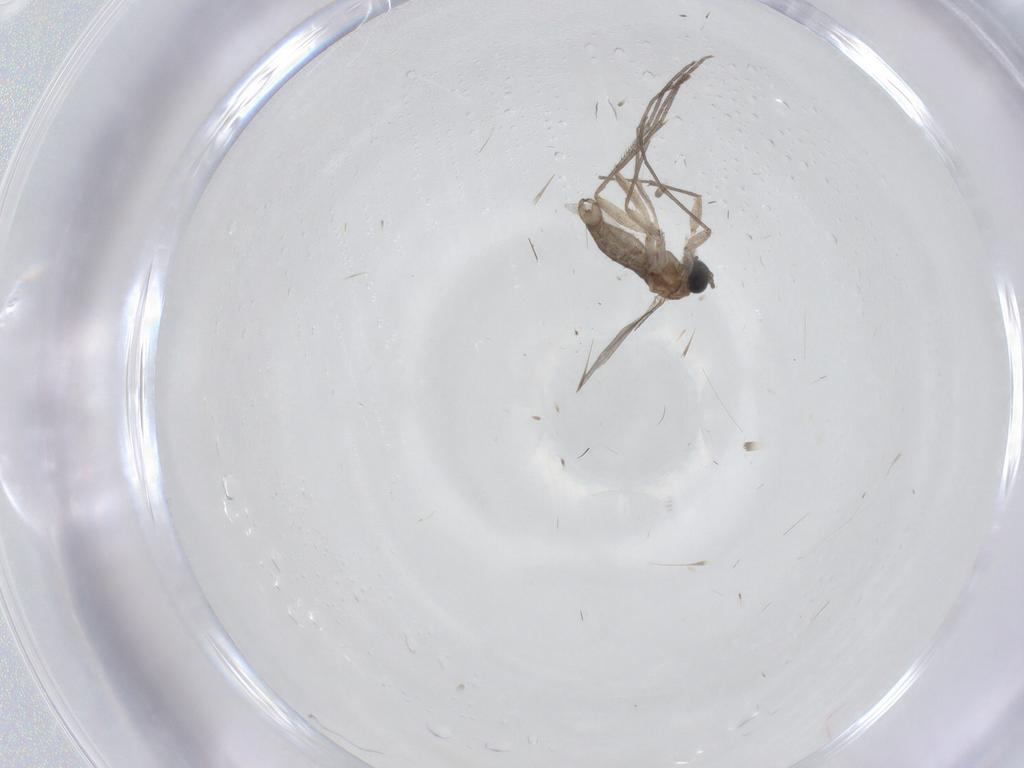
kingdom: Animalia
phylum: Arthropoda
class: Insecta
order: Diptera
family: Sciaridae
